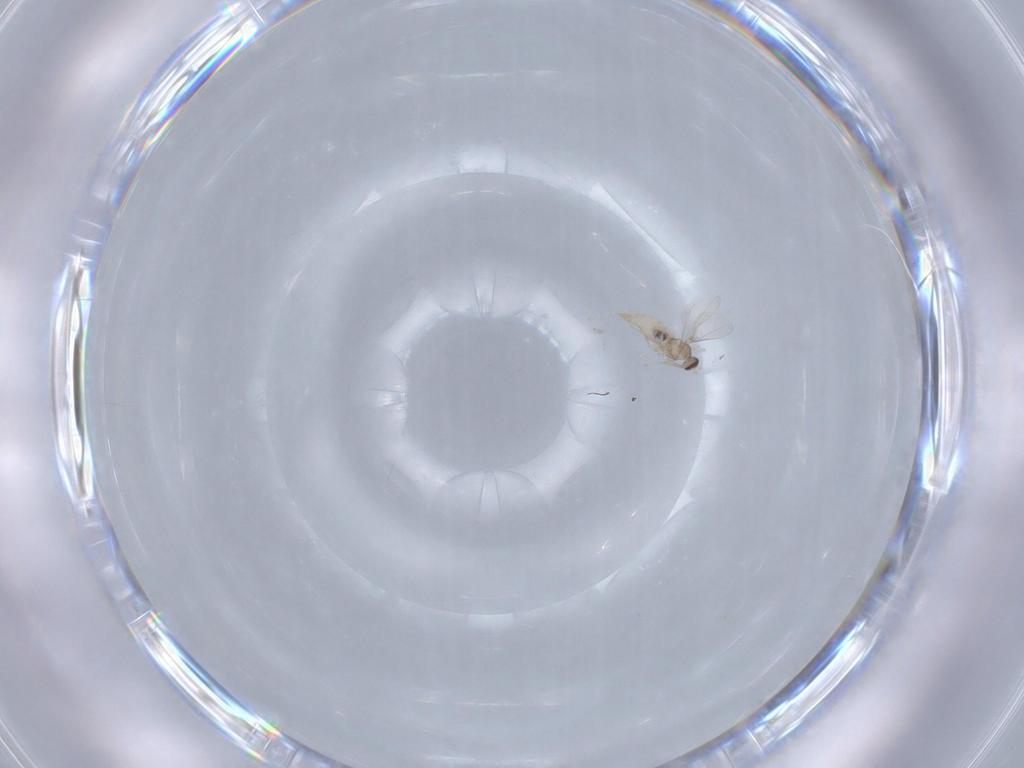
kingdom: Animalia
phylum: Arthropoda
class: Insecta
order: Diptera
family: Cecidomyiidae
